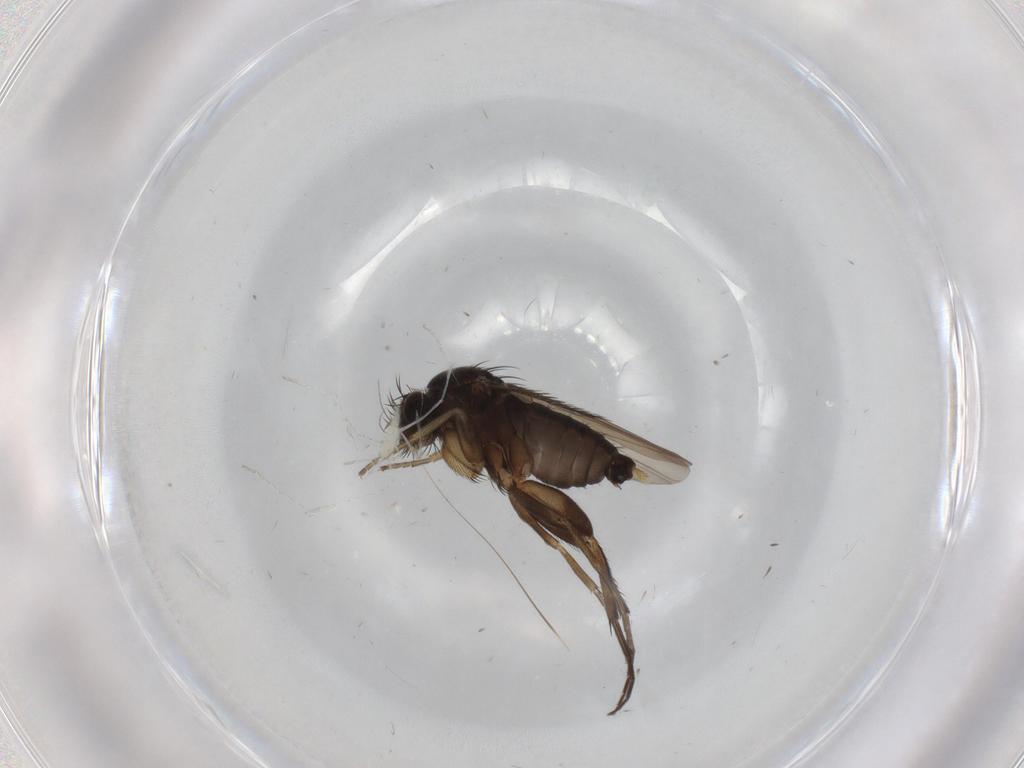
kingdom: Animalia
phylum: Arthropoda
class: Insecta
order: Diptera
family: Phoridae
